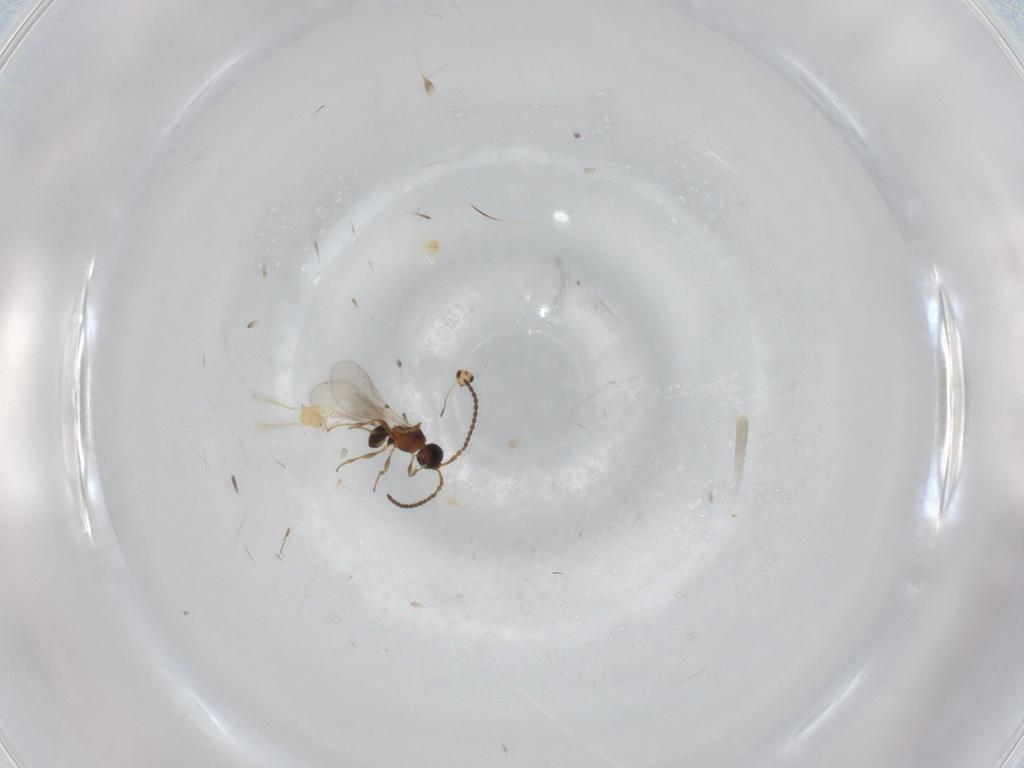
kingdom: Animalia
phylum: Arthropoda
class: Insecta
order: Hymenoptera
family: Diapriidae
